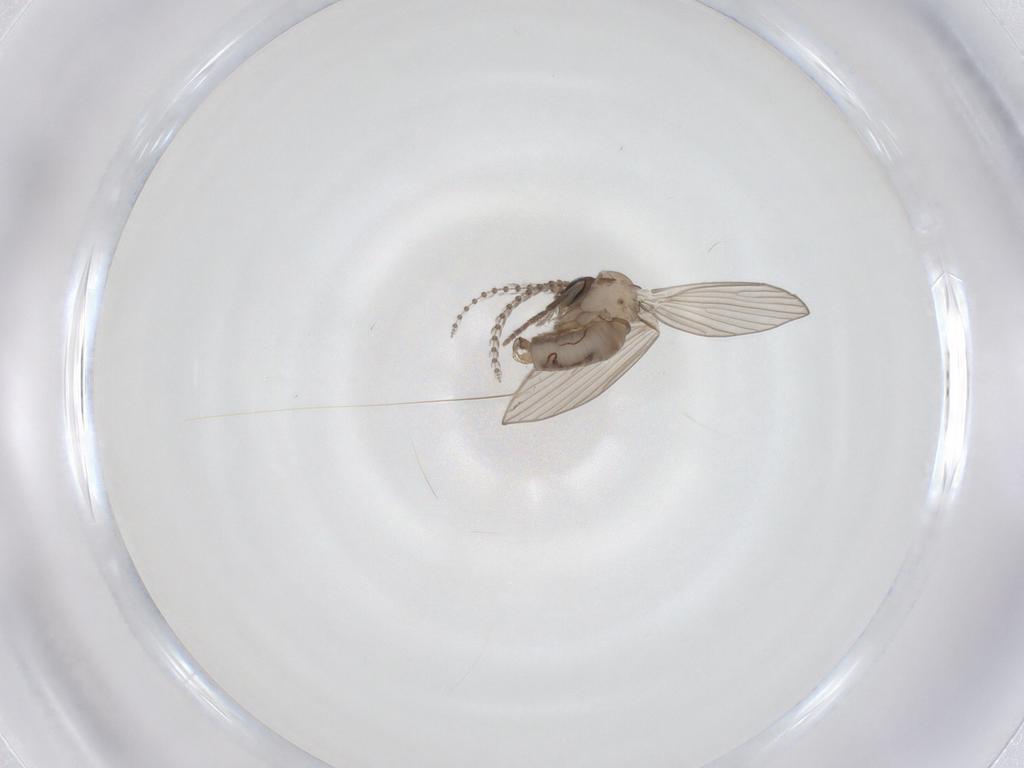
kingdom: Animalia
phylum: Arthropoda
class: Insecta
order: Diptera
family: Psychodidae
